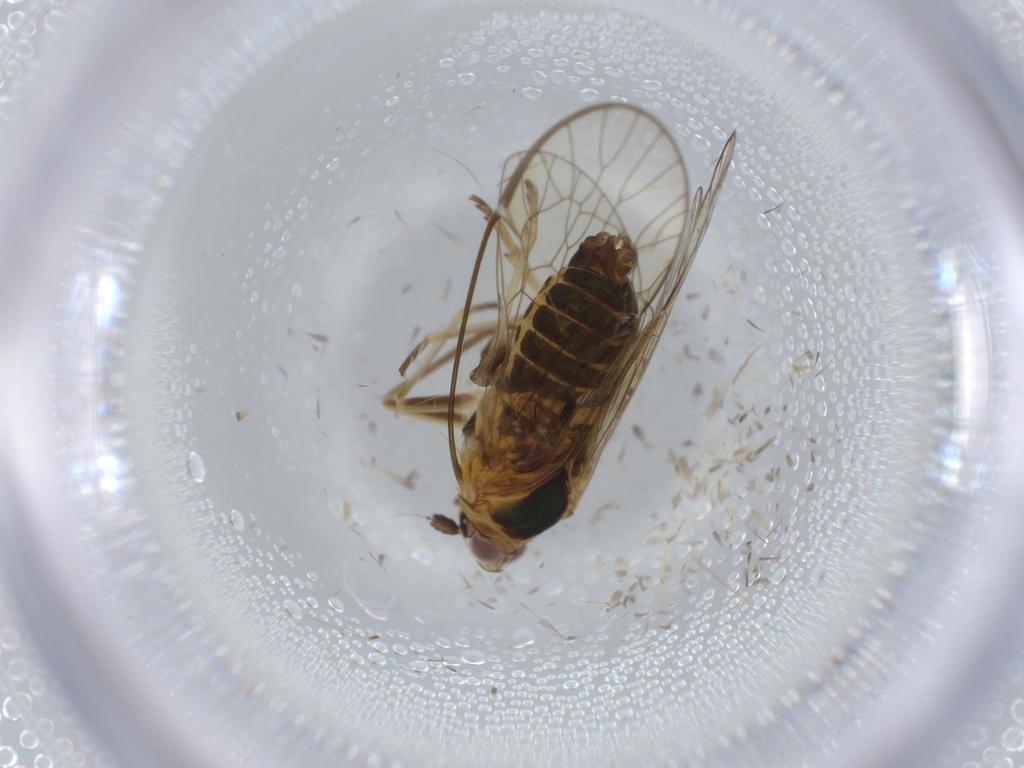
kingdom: Animalia
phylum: Arthropoda
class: Insecta
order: Hemiptera
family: Kinnaridae
